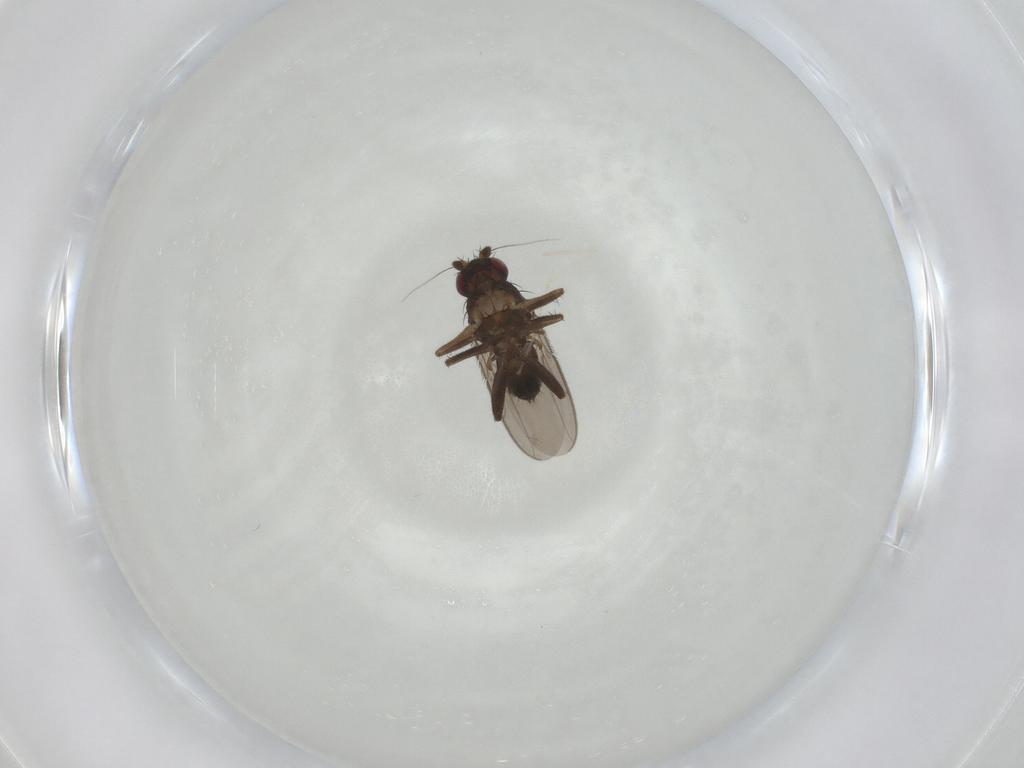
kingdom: Animalia
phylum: Arthropoda
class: Insecta
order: Diptera
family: Sphaeroceridae
